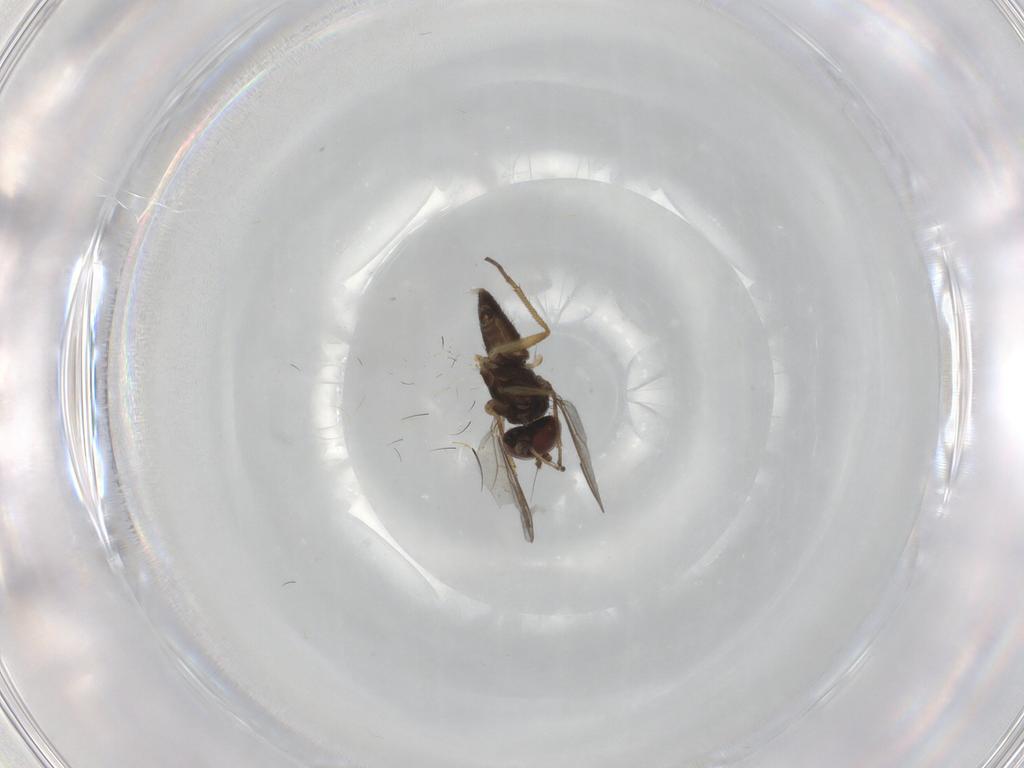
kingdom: Animalia
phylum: Arthropoda
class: Insecta
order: Diptera
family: Dolichopodidae
